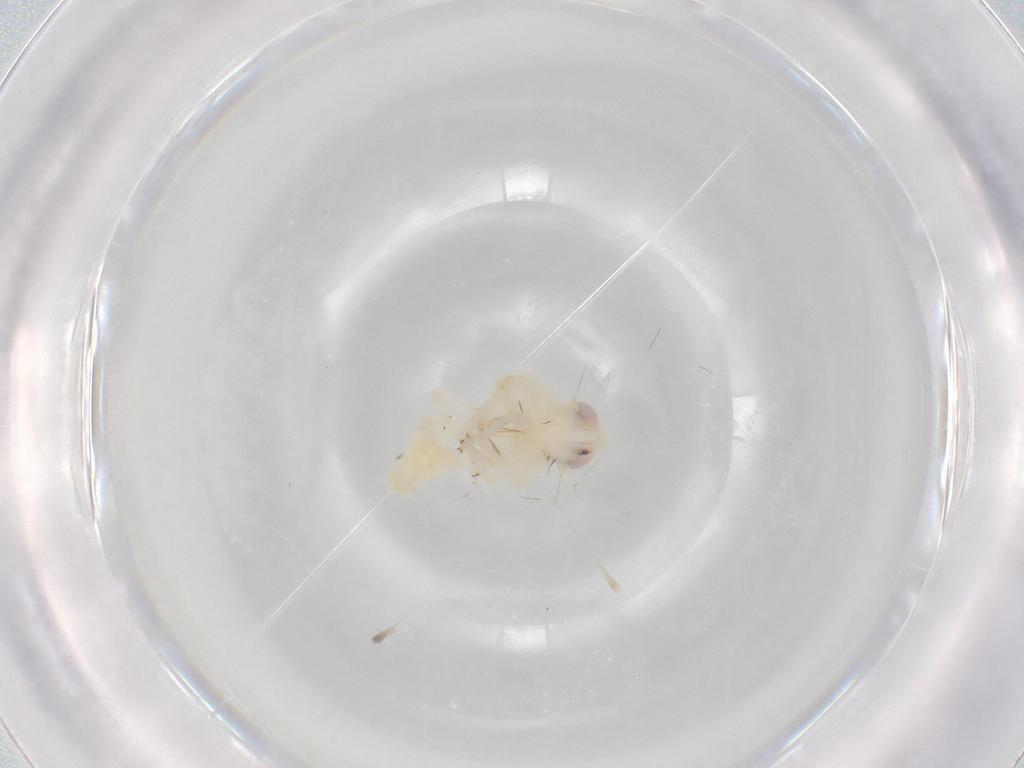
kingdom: Animalia
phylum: Arthropoda
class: Insecta
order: Hemiptera
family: Nogodinidae
